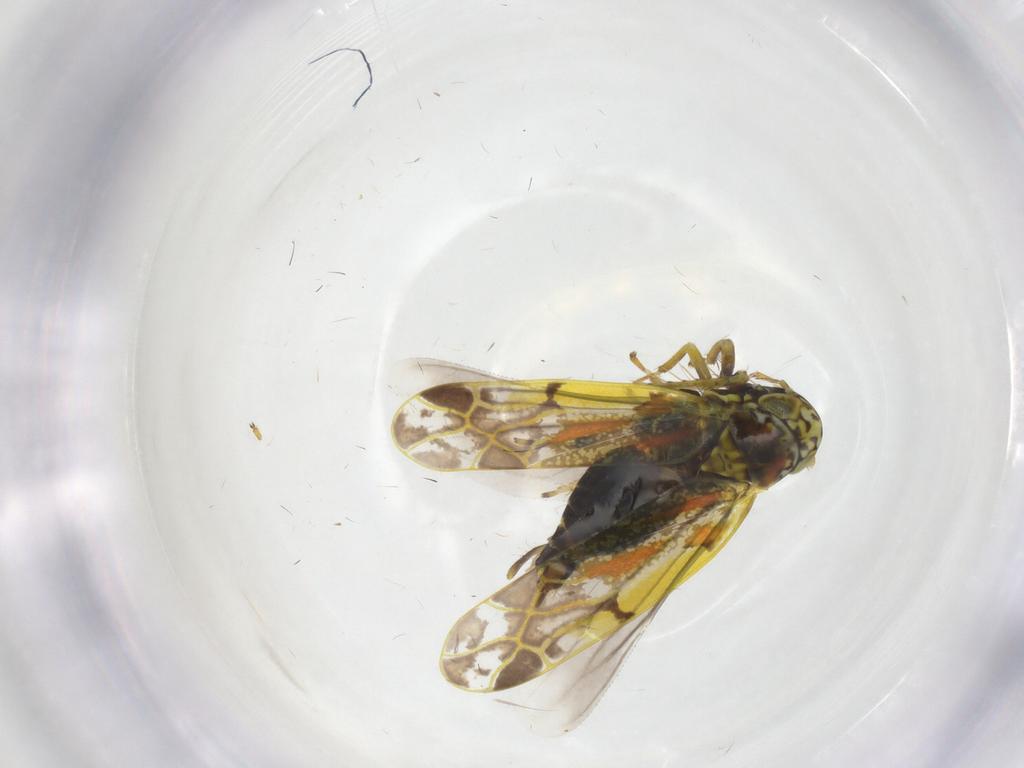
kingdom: Animalia
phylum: Arthropoda
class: Insecta
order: Hemiptera
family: Cicadellidae
